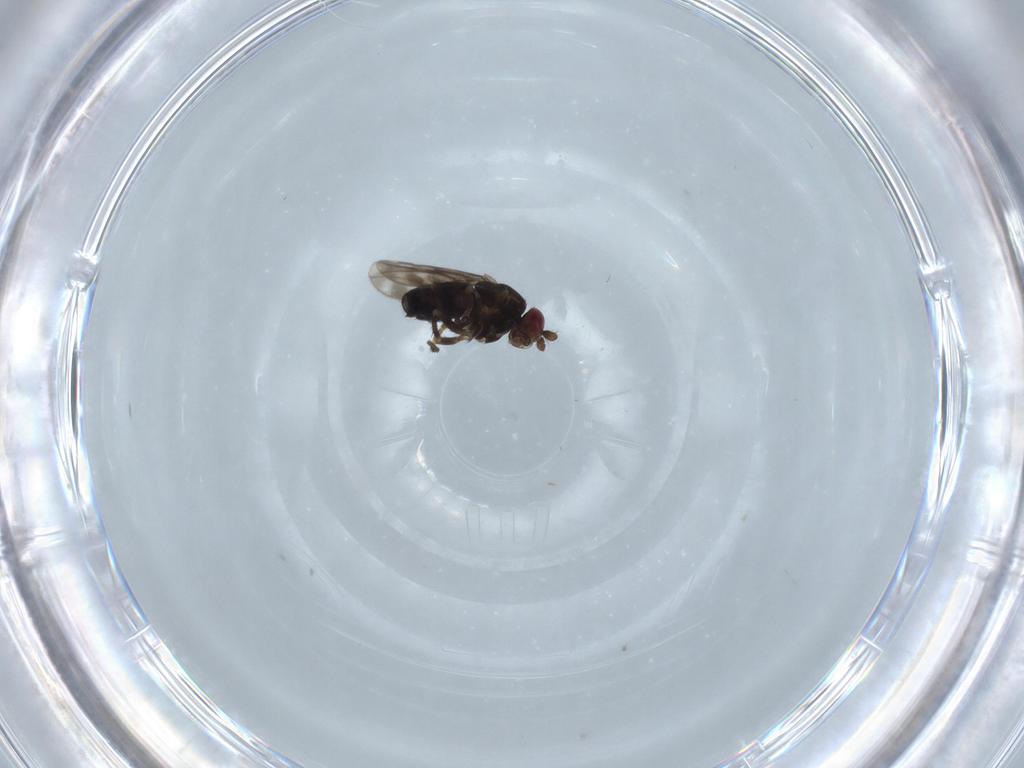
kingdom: Animalia
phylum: Arthropoda
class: Insecta
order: Diptera
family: Sphaeroceridae
